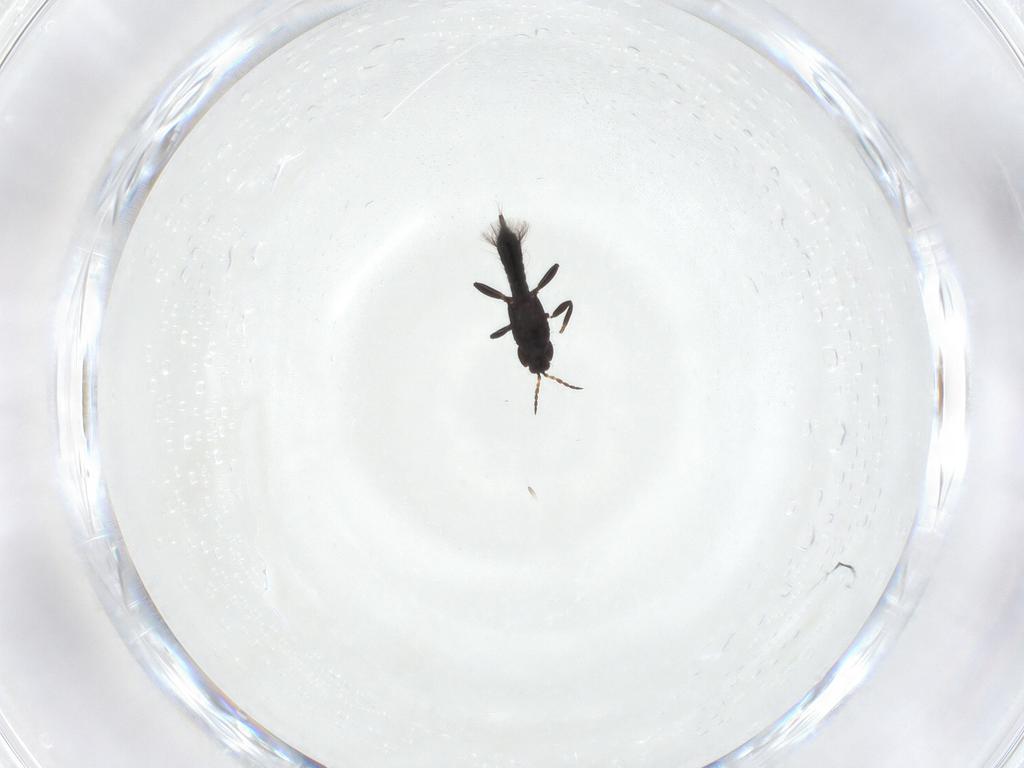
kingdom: Animalia
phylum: Arthropoda
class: Insecta
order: Thysanoptera
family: Phlaeothripidae
